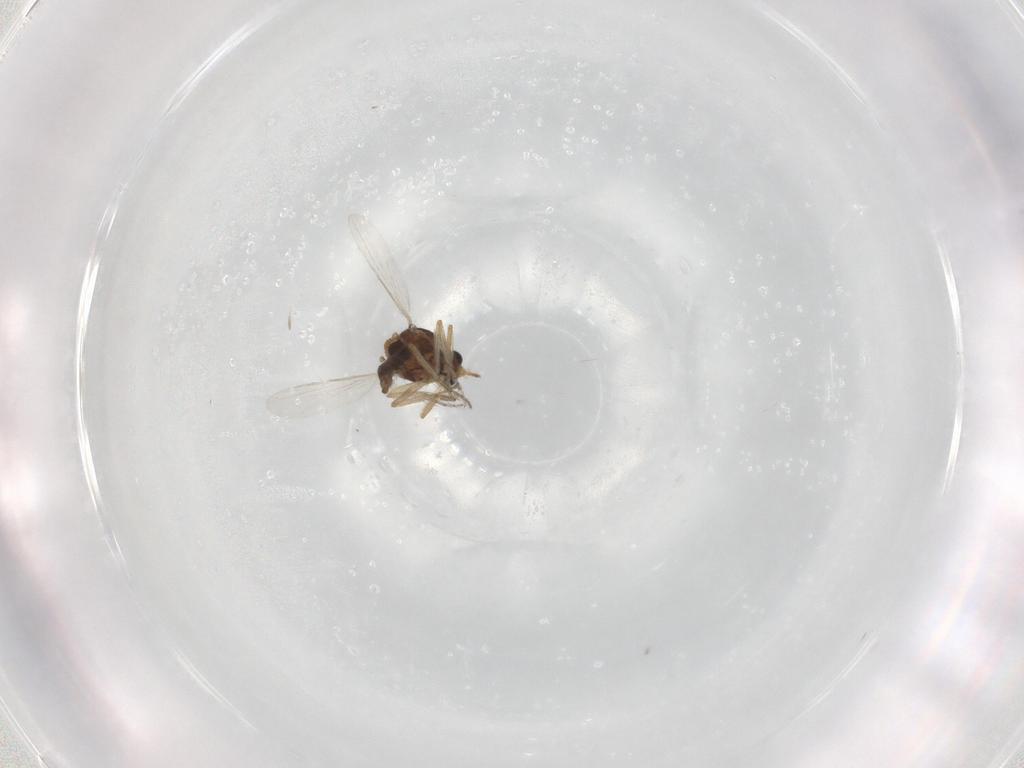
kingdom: Animalia
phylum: Arthropoda
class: Insecta
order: Diptera
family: Ceratopogonidae
